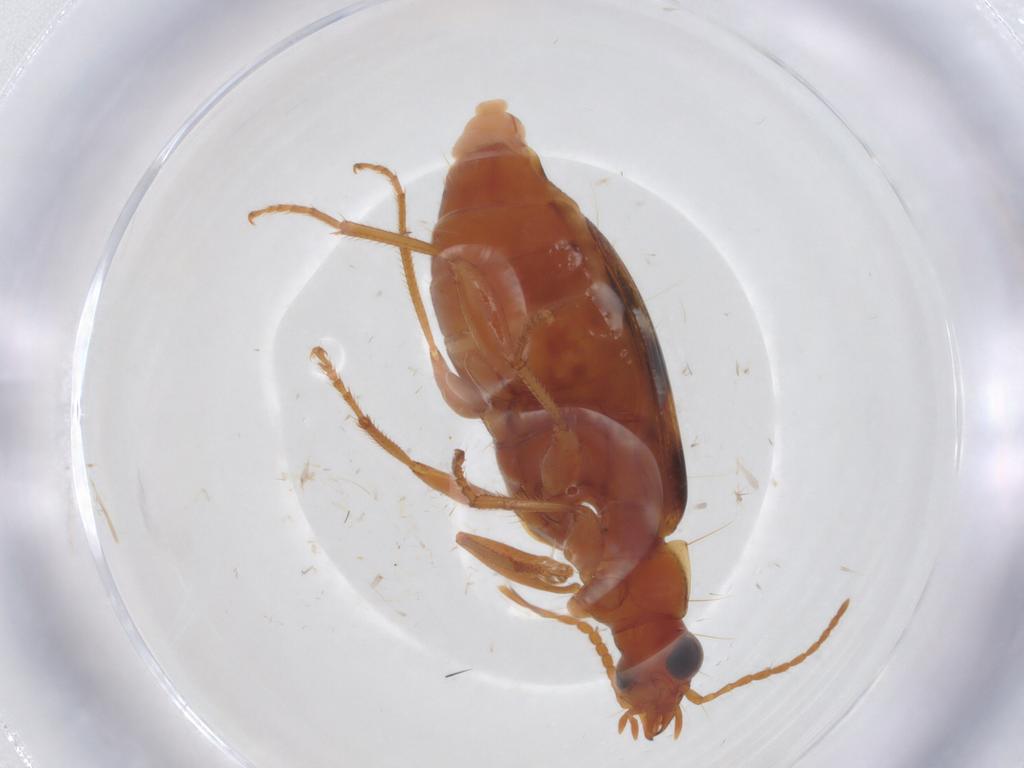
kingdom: Animalia
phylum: Arthropoda
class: Insecta
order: Coleoptera
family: Carabidae
